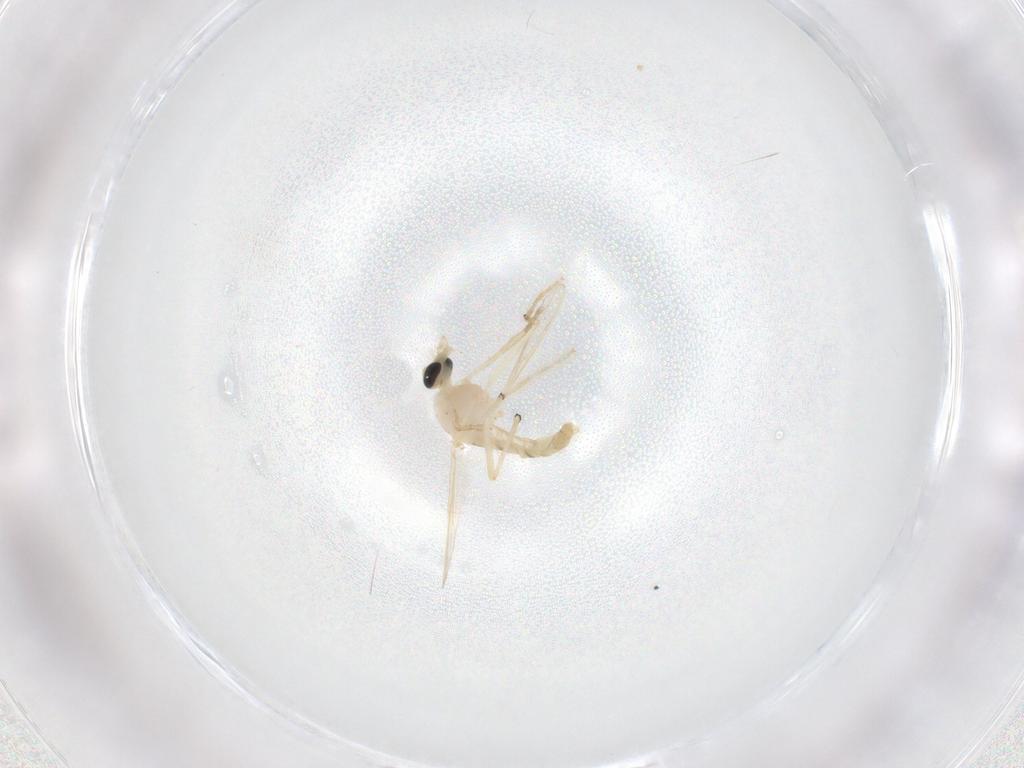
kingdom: Animalia
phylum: Arthropoda
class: Insecta
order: Diptera
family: Chironomidae
